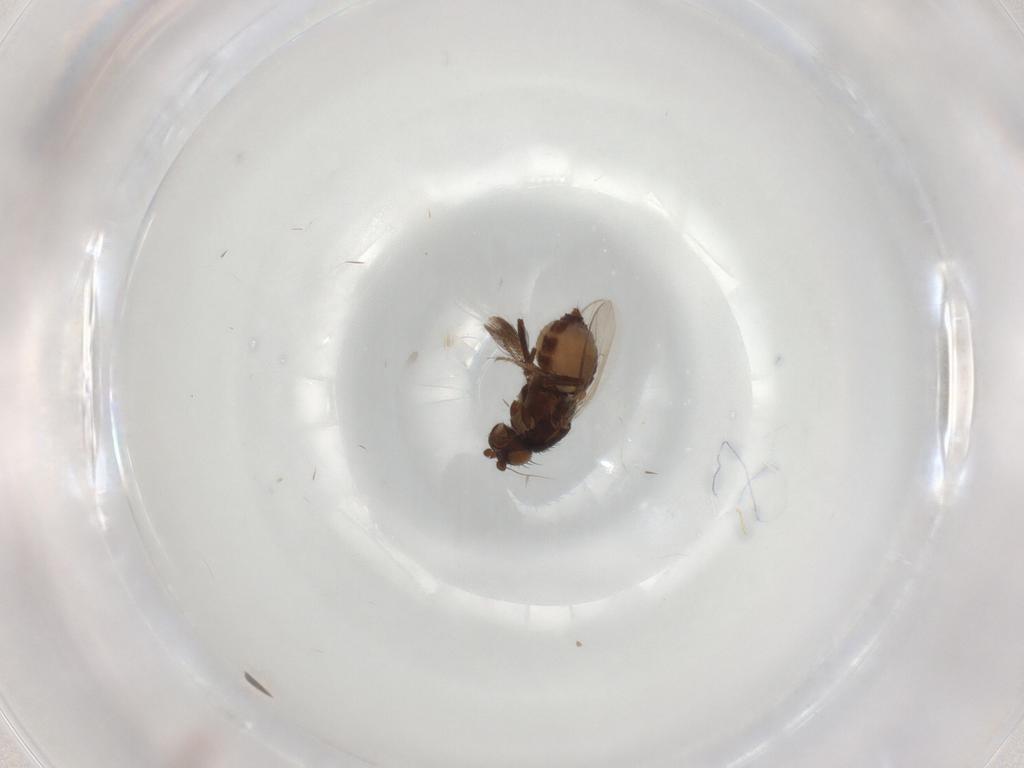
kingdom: Animalia
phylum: Arthropoda
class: Insecta
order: Diptera
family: Sphaeroceridae
